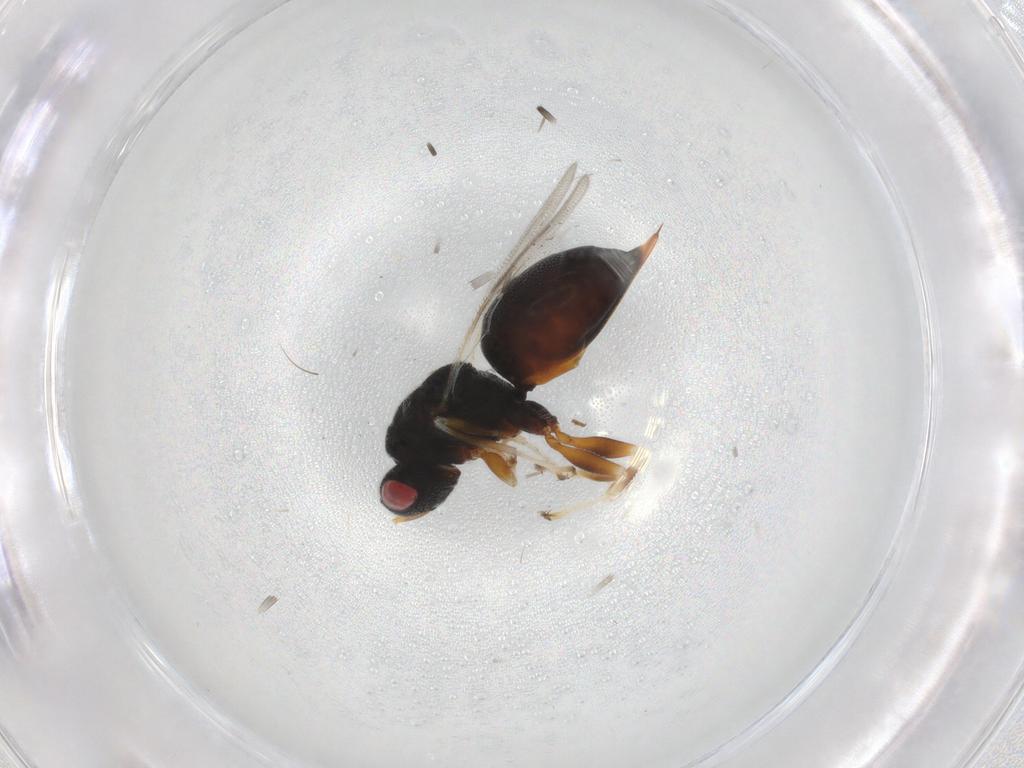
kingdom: Animalia
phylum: Arthropoda
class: Insecta
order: Hymenoptera
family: Eurytomidae
